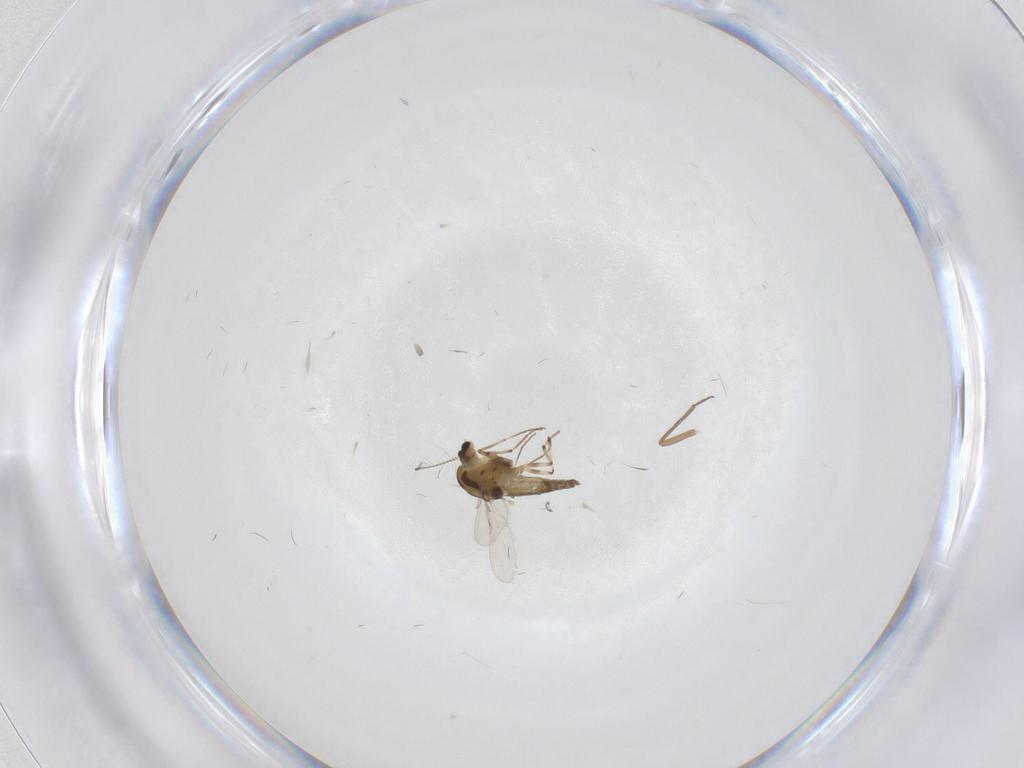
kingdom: Animalia
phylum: Arthropoda
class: Insecta
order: Diptera
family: Chironomidae
